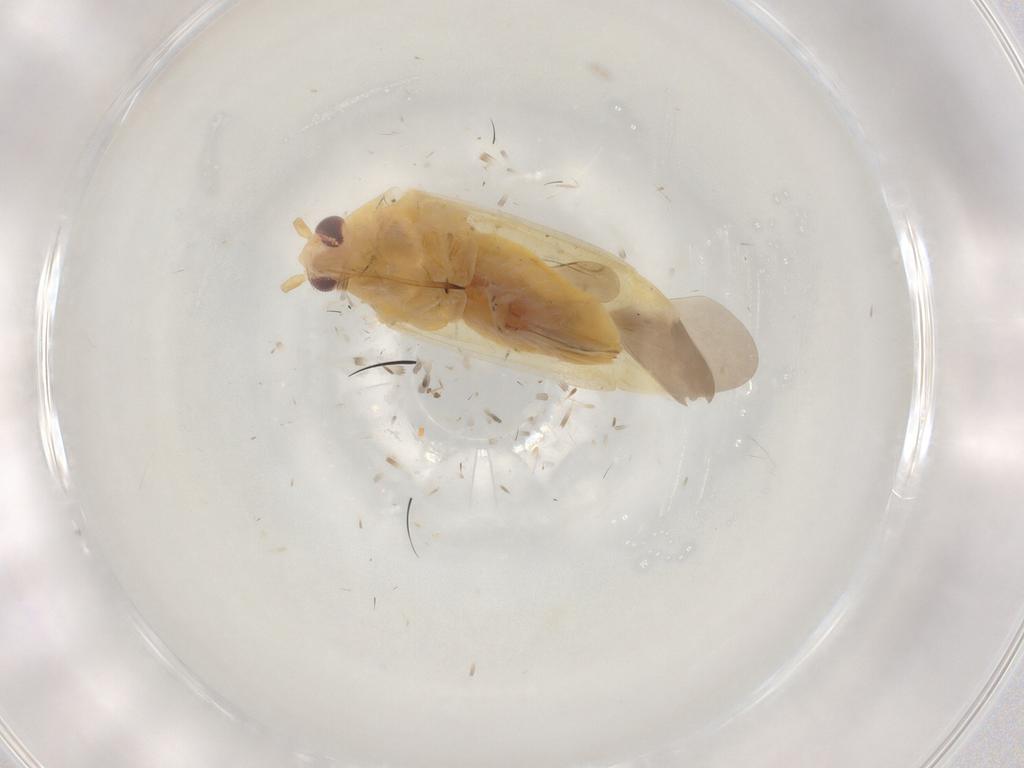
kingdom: Animalia
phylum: Arthropoda
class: Insecta
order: Hemiptera
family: Miridae
